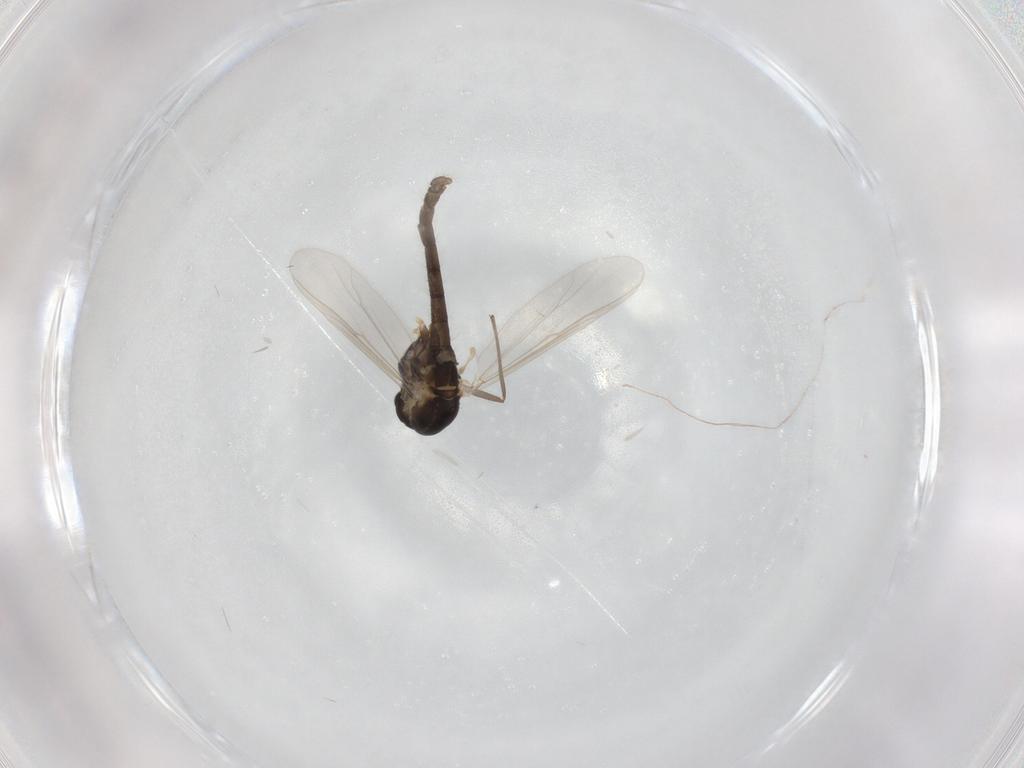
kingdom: Animalia
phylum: Arthropoda
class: Insecta
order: Diptera
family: Chironomidae
